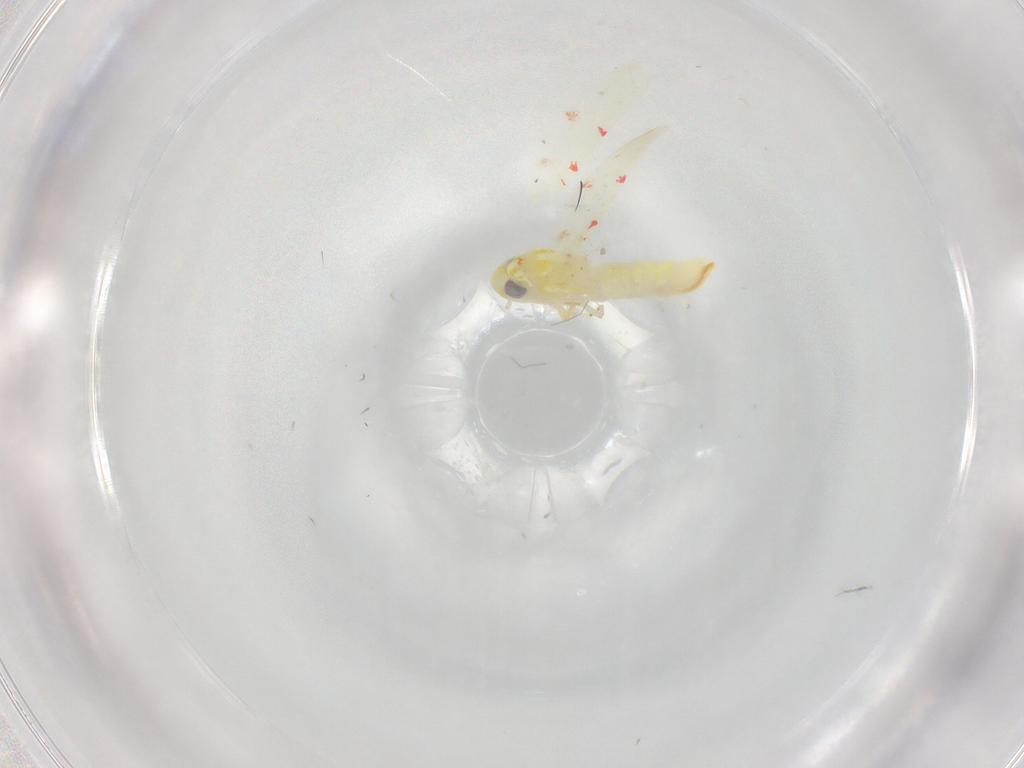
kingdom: Animalia
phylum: Arthropoda
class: Insecta
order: Hemiptera
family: Cicadellidae
